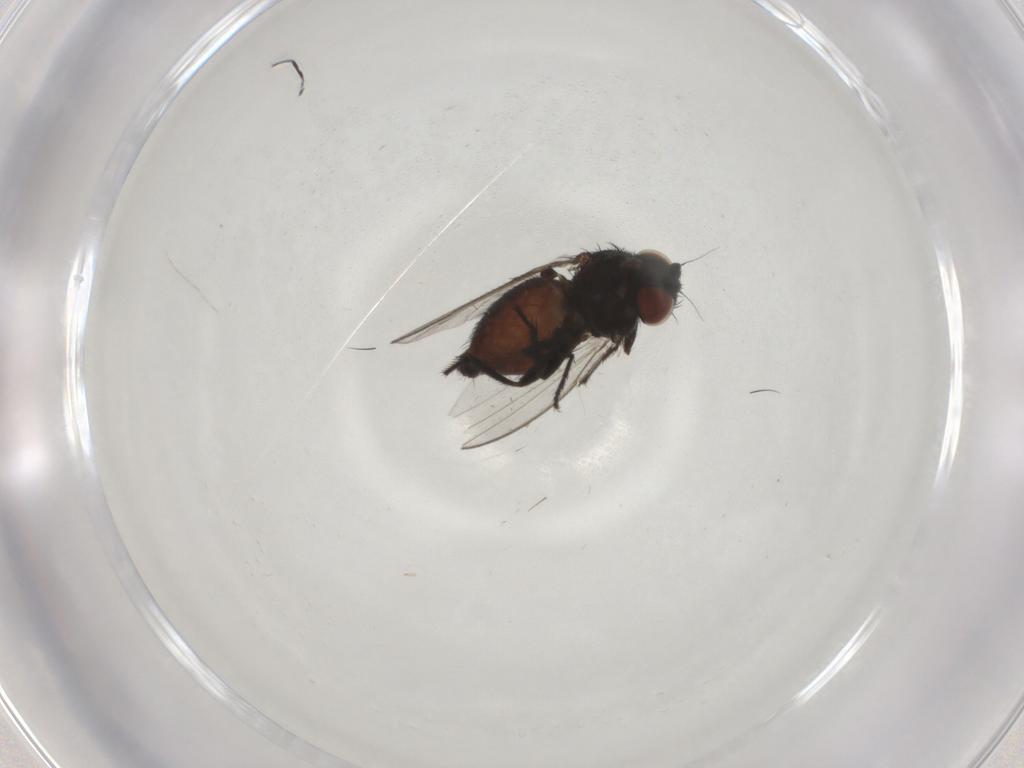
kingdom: Animalia
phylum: Arthropoda
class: Insecta
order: Diptera
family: Milichiidae
